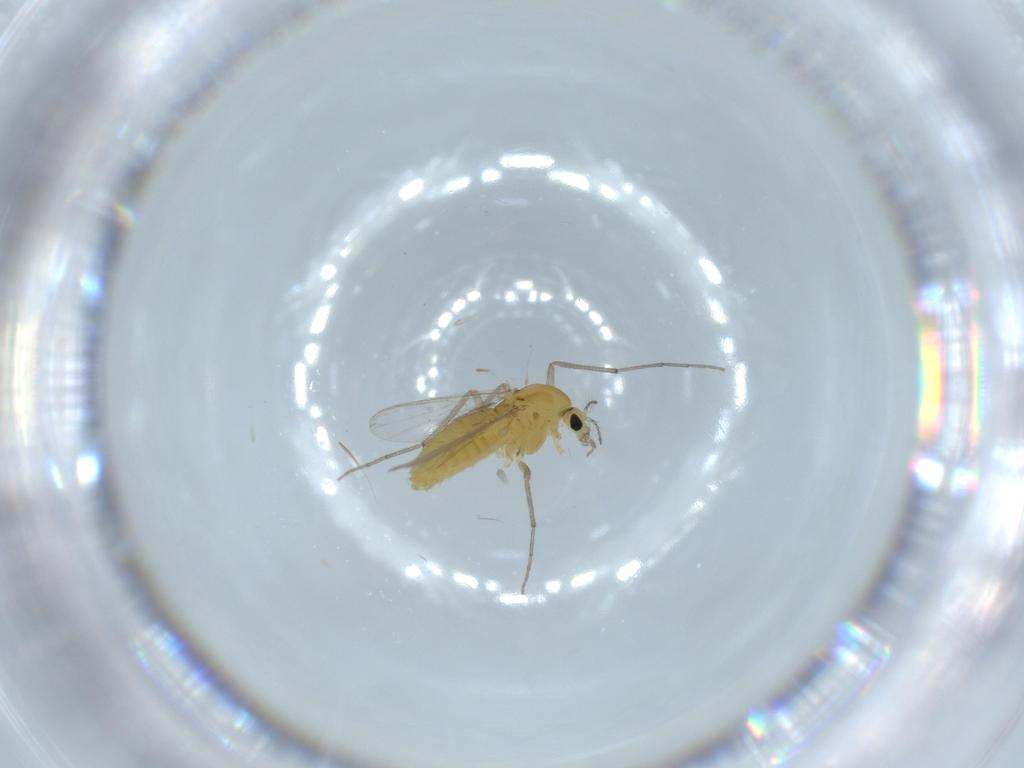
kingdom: Animalia
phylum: Arthropoda
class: Insecta
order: Diptera
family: Chironomidae
